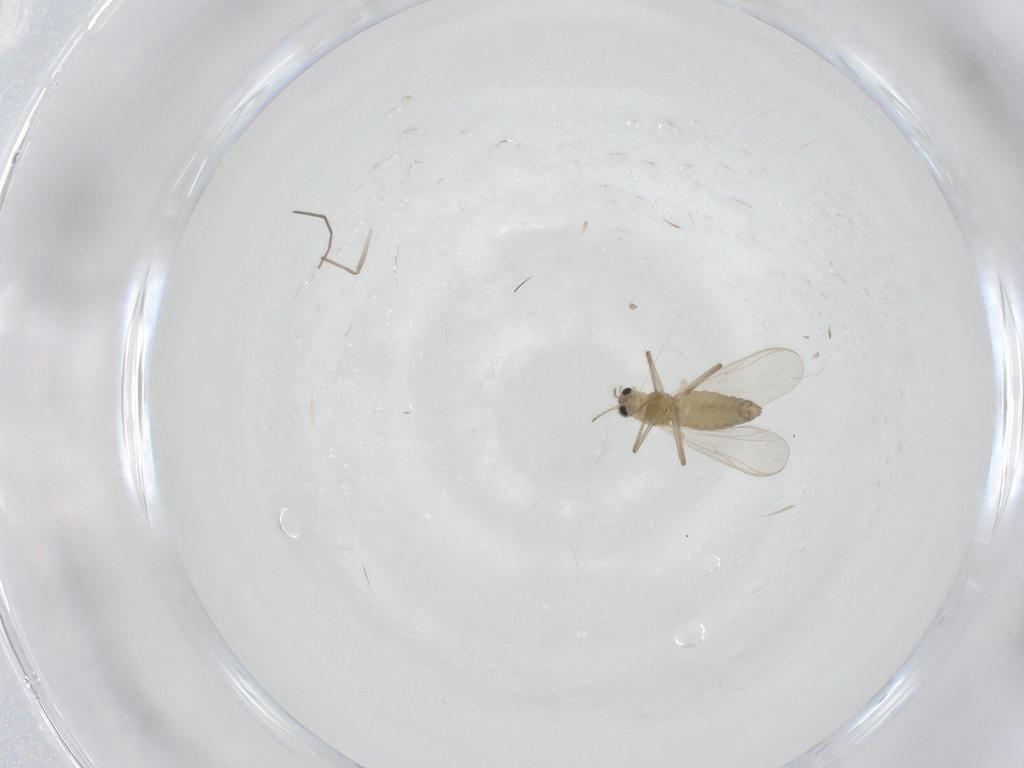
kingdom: Animalia
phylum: Arthropoda
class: Insecta
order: Diptera
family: Chironomidae
